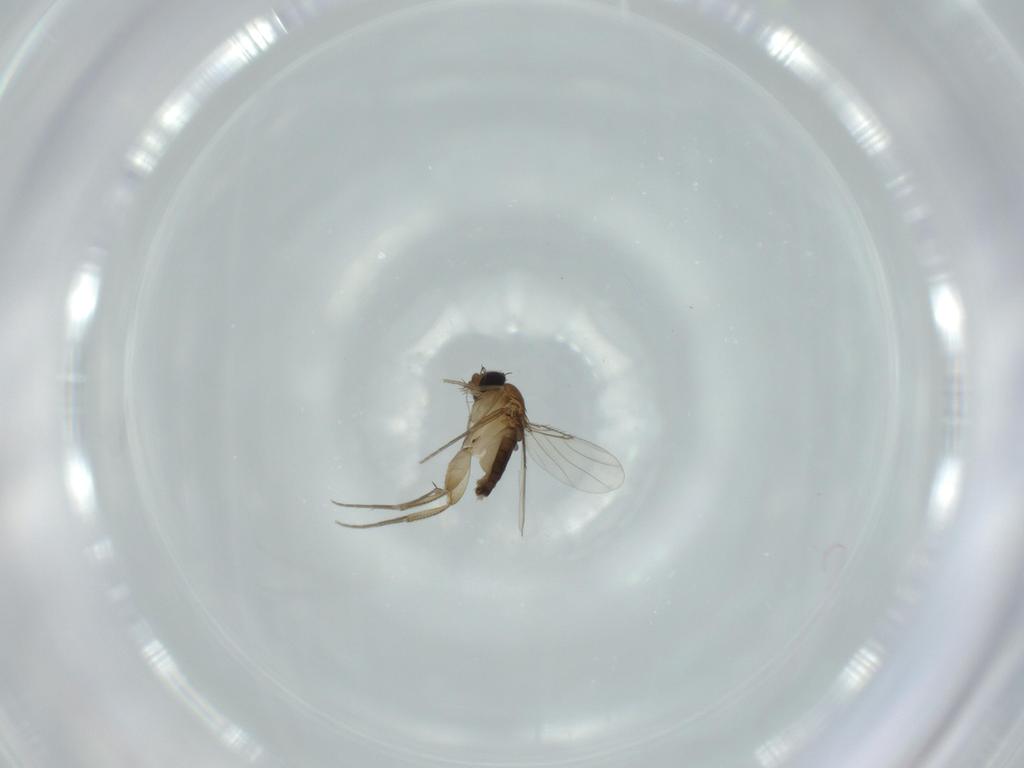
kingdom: Animalia
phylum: Arthropoda
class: Insecta
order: Diptera
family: Phoridae
